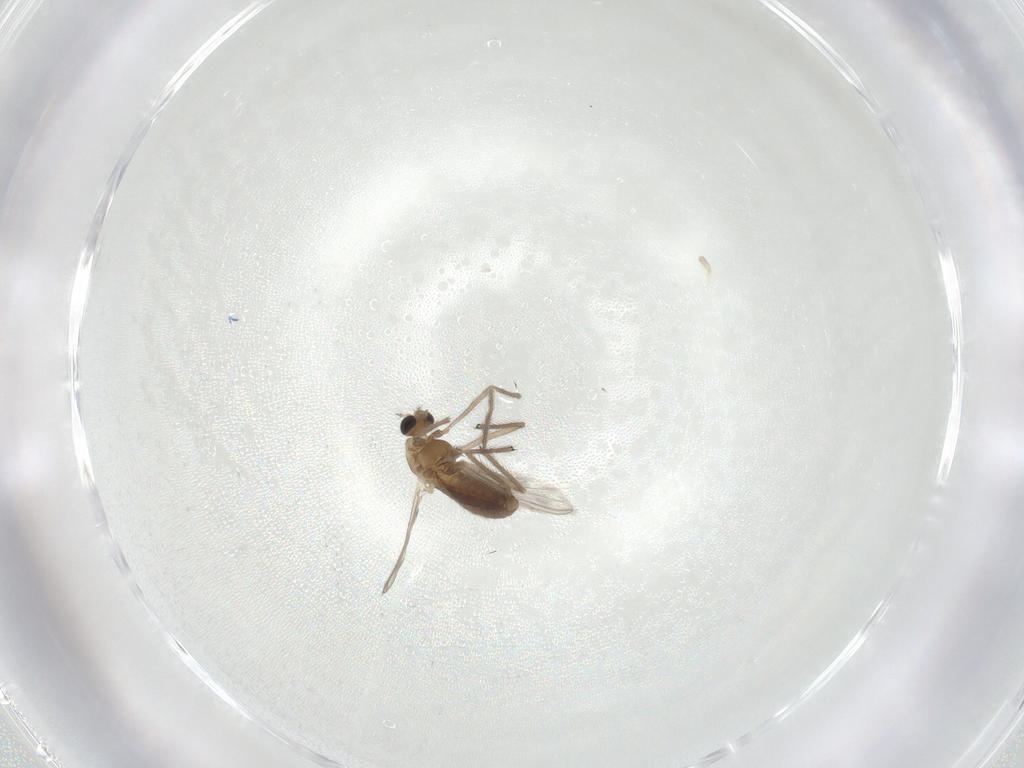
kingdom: Animalia
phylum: Arthropoda
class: Insecta
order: Diptera
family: Chironomidae
